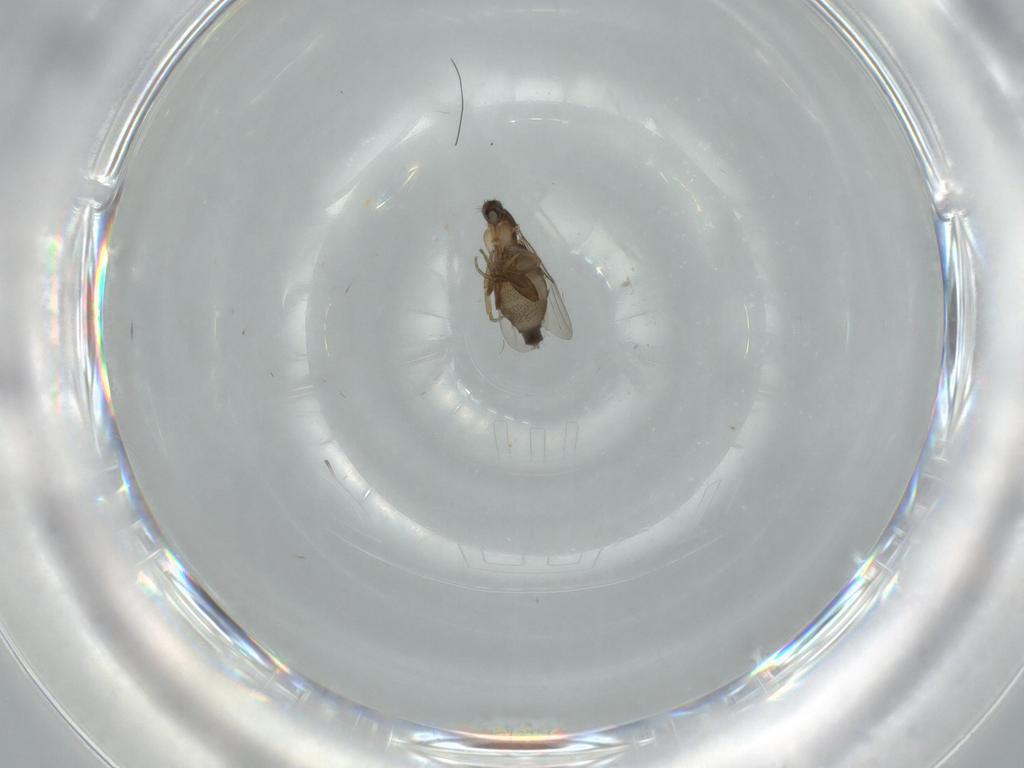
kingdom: Animalia
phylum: Arthropoda
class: Insecta
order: Diptera
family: Phoridae
